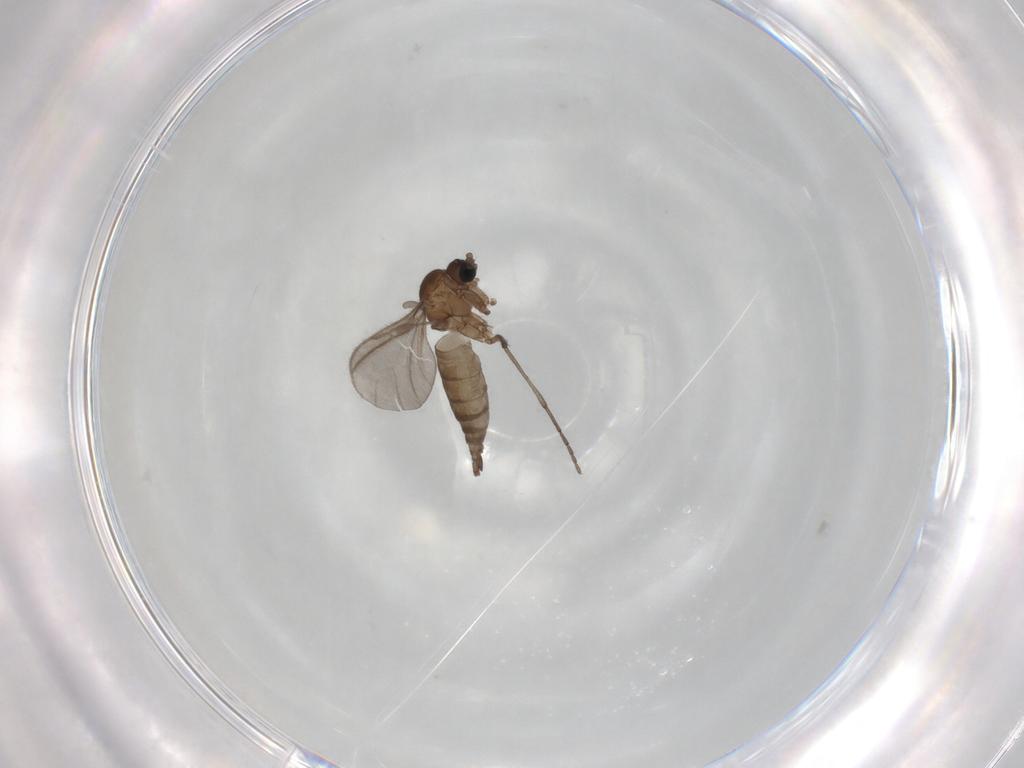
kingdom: Animalia
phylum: Arthropoda
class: Insecta
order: Diptera
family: Sciaridae
